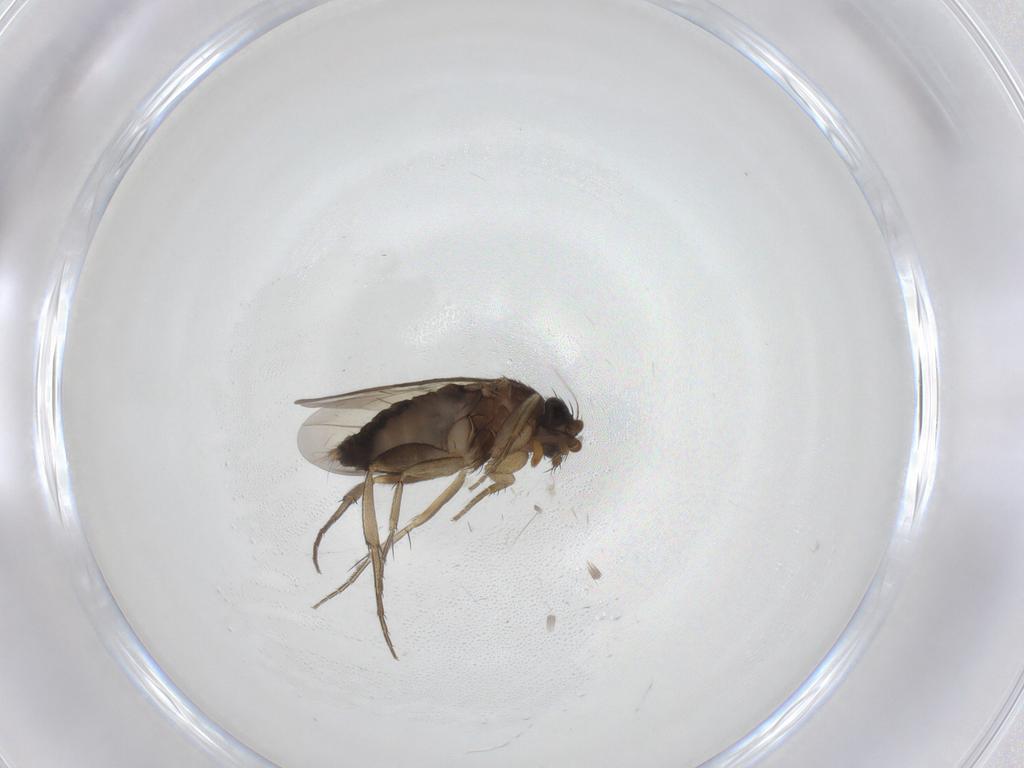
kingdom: Animalia
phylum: Arthropoda
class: Insecta
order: Diptera
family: Phoridae
